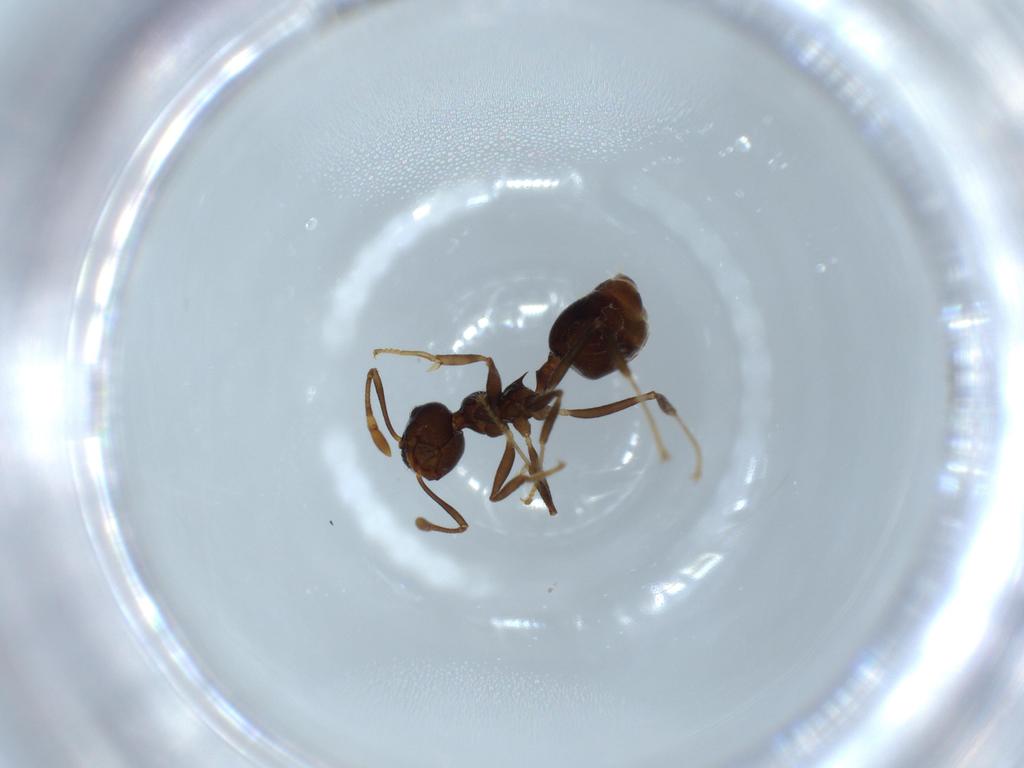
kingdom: Animalia
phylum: Arthropoda
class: Insecta
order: Hymenoptera
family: Formicidae
